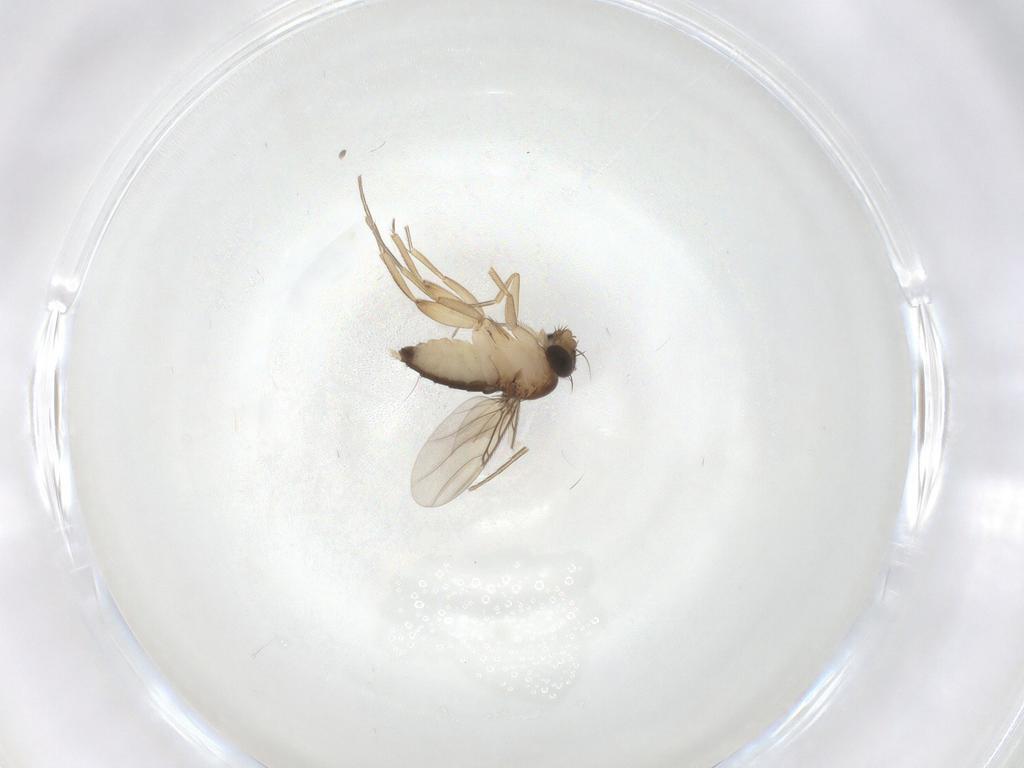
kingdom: Animalia
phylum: Arthropoda
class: Insecta
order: Diptera
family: Phoridae
